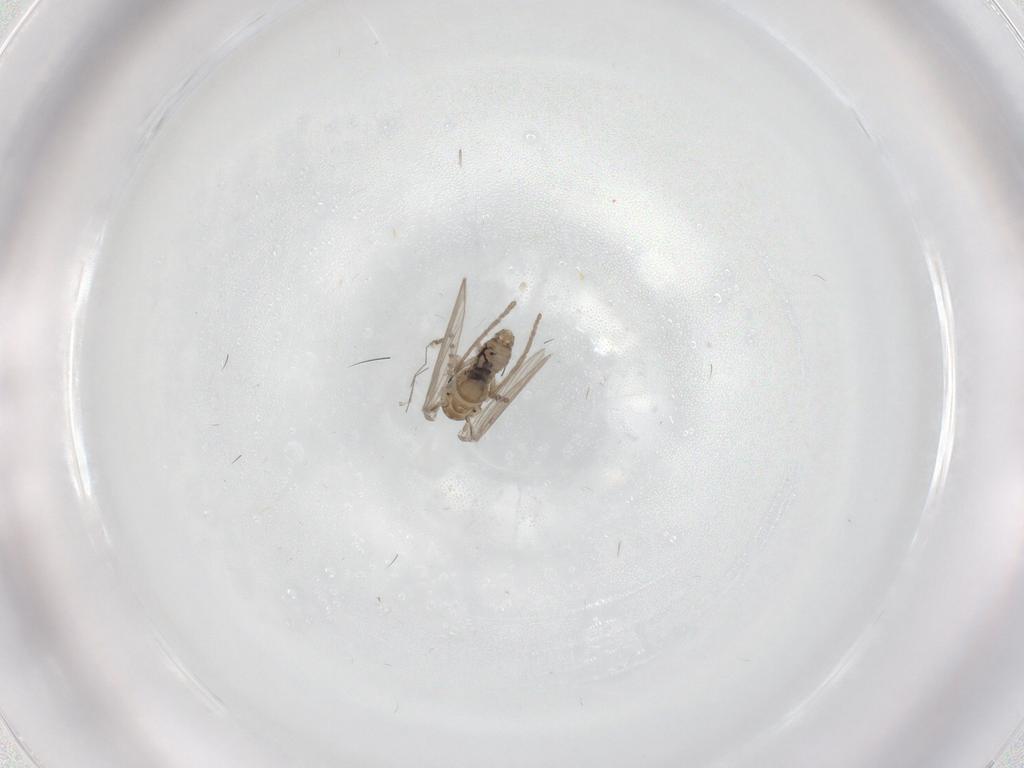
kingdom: Animalia
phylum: Arthropoda
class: Insecta
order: Diptera
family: Psychodidae
